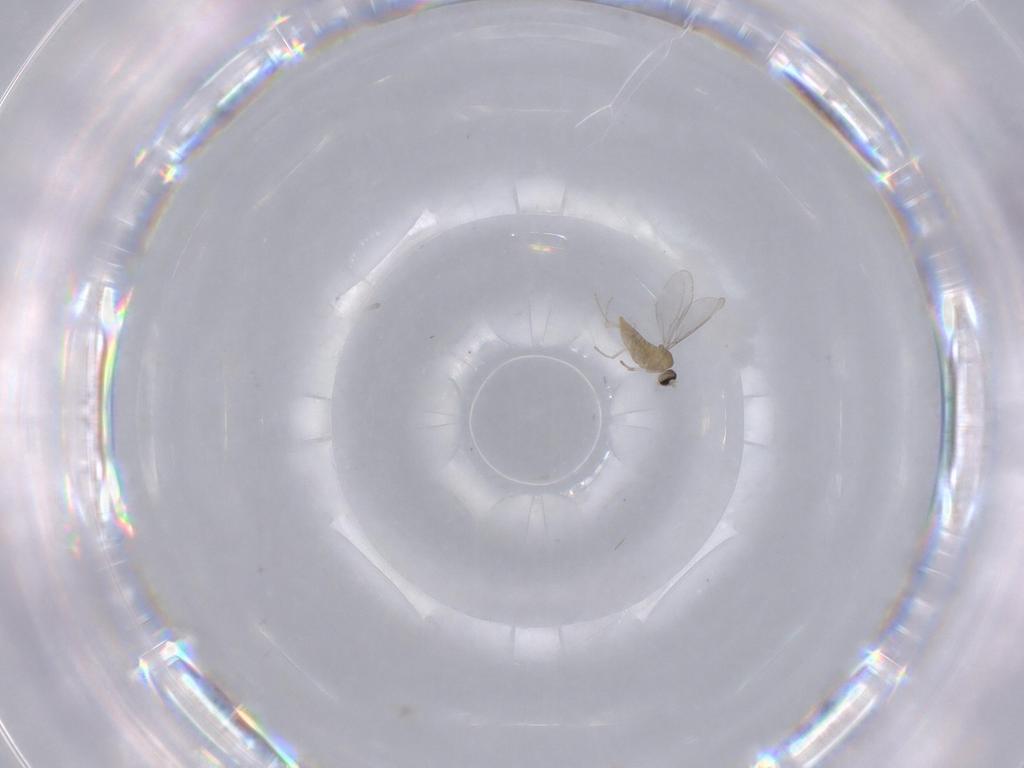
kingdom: Animalia
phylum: Arthropoda
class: Insecta
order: Diptera
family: Cecidomyiidae
